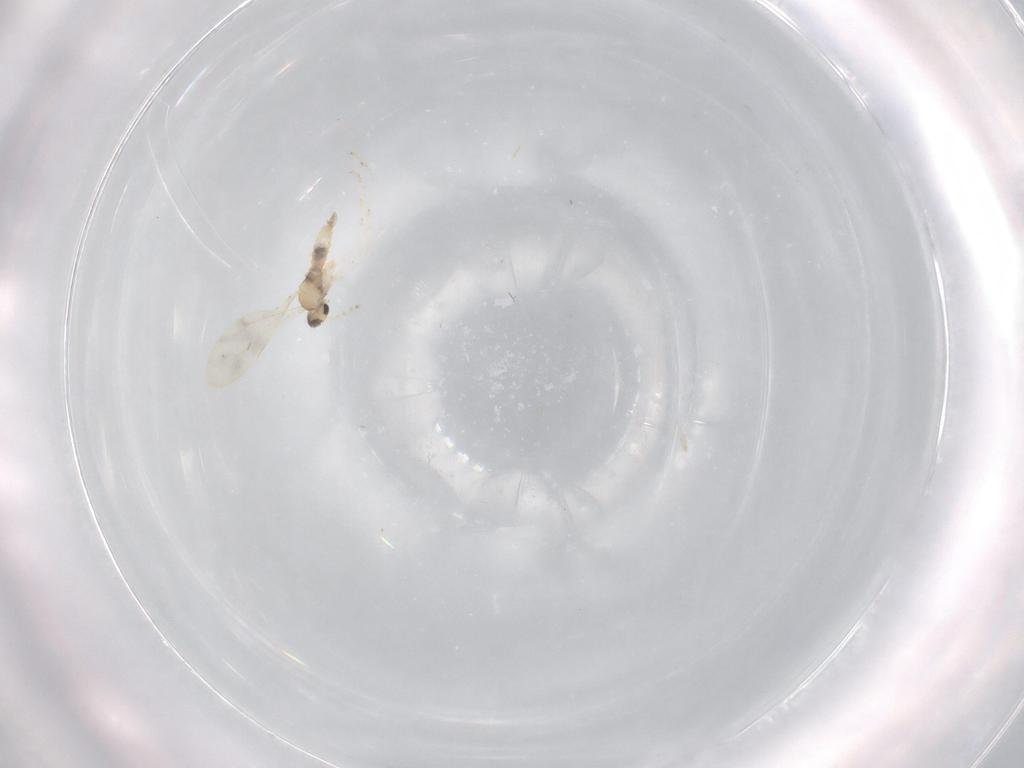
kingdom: Animalia
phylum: Arthropoda
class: Insecta
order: Diptera
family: Cecidomyiidae
